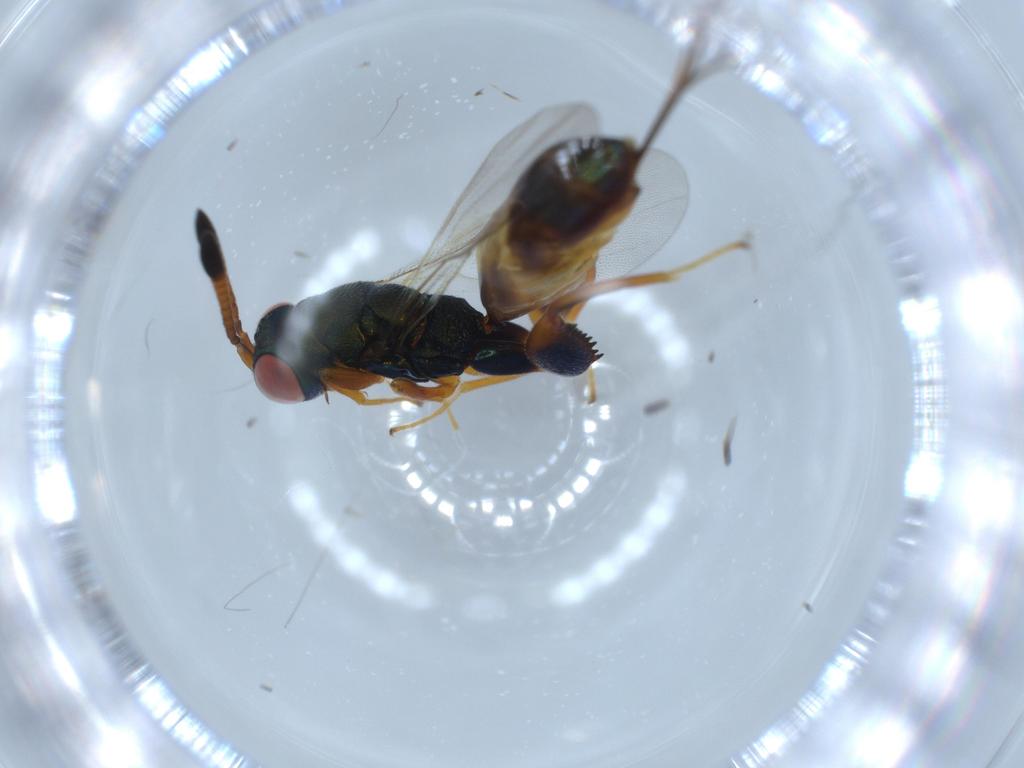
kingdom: Animalia
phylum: Arthropoda
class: Insecta
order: Hymenoptera
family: Torymidae
